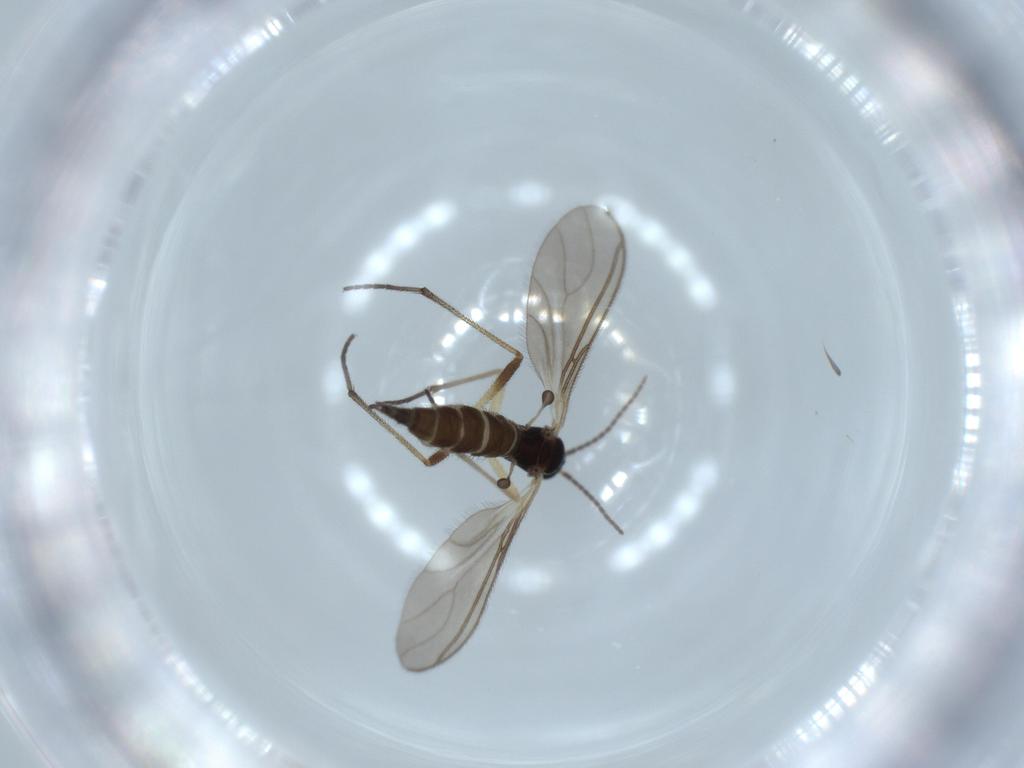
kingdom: Animalia
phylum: Arthropoda
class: Insecta
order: Diptera
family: Sciaridae
